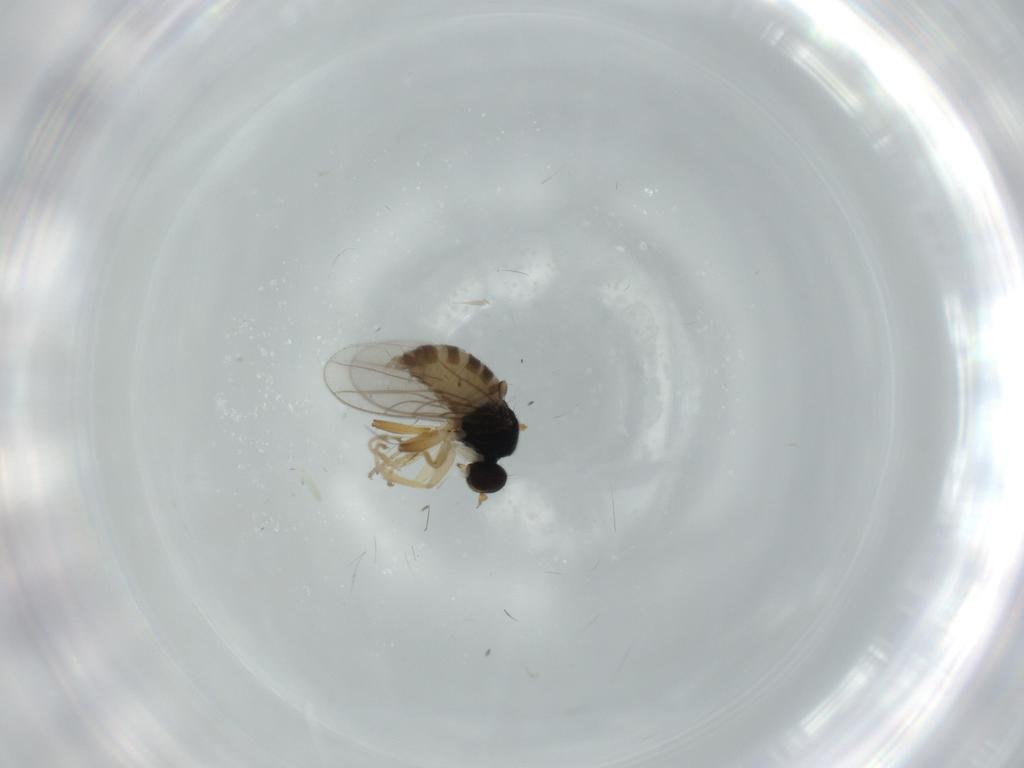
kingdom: Animalia
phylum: Arthropoda
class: Insecta
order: Diptera
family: Hybotidae
